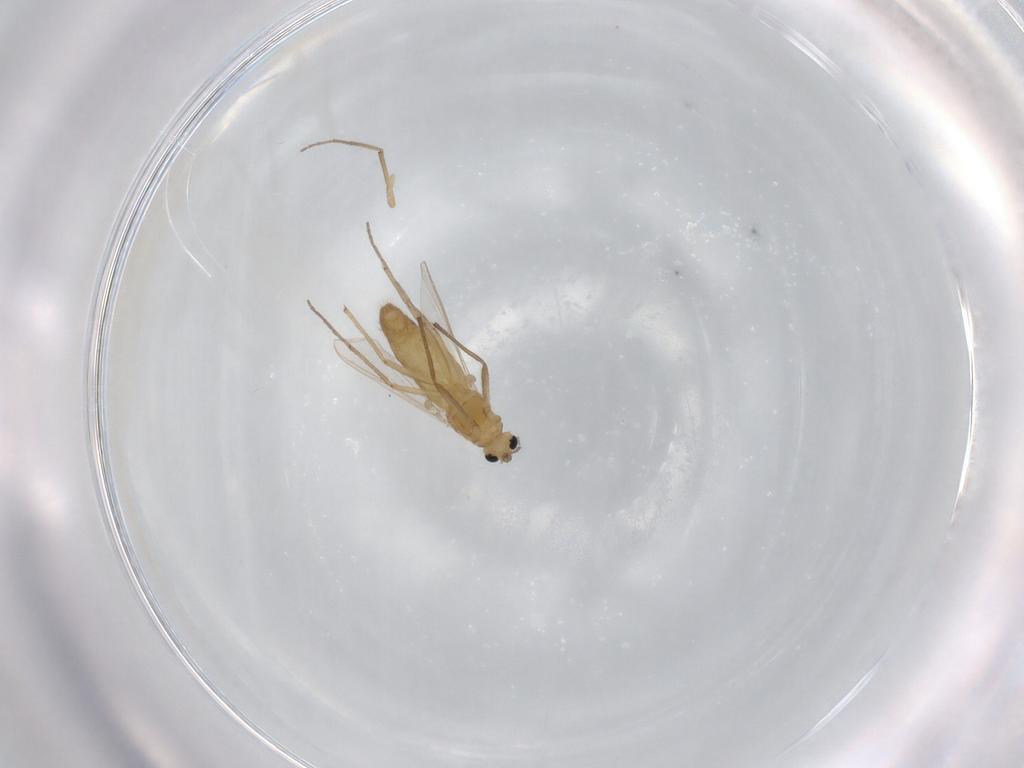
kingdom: Animalia
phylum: Arthropoda
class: Insecta
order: Diptera
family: Chironomidae
